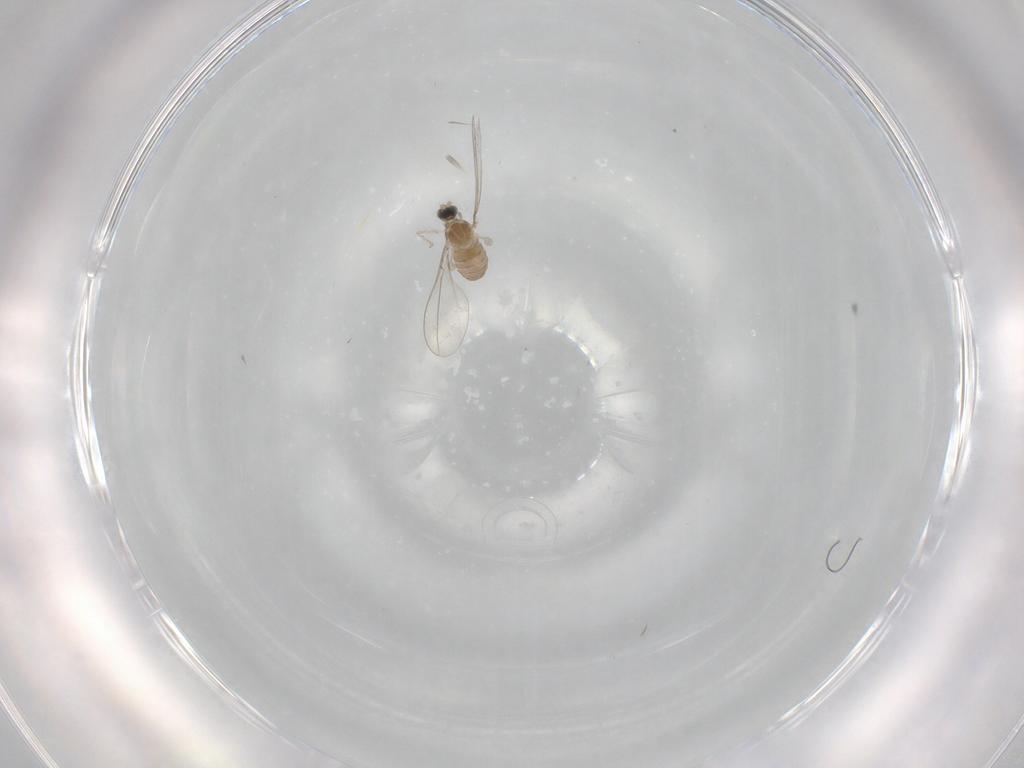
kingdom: Animalia
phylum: Arthropoda
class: Insecta
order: Diptera
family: Cecidomyiidae
